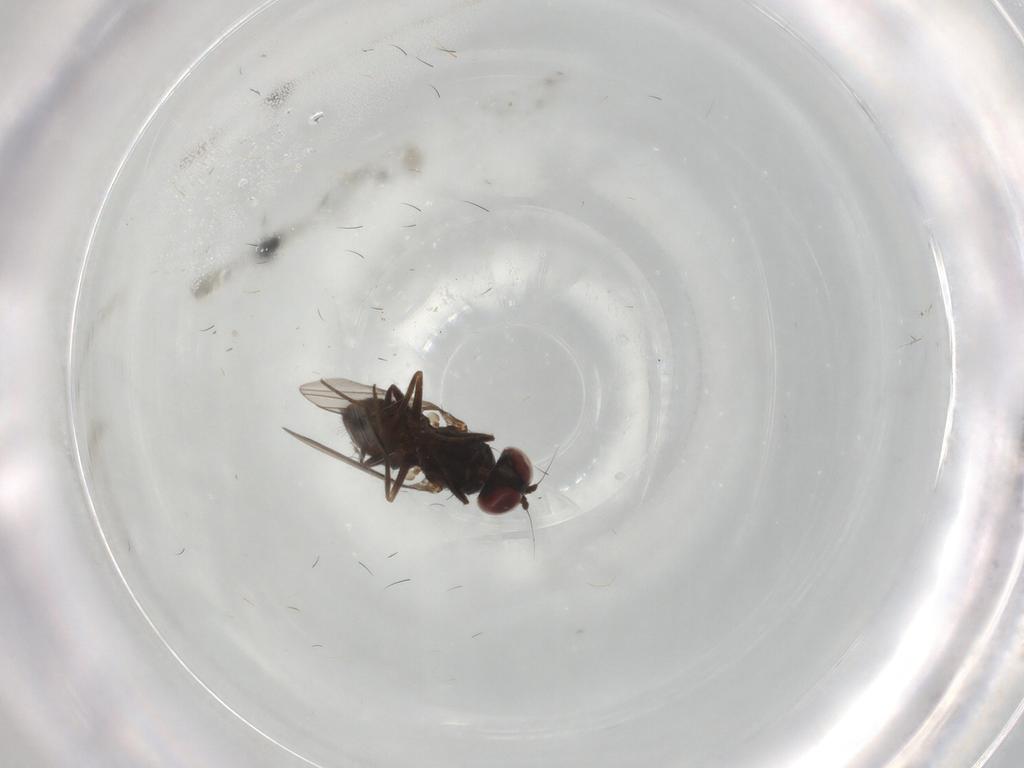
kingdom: Animalia
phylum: Arthropoda
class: Insecta
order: Diptera
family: Dolichopodidae
